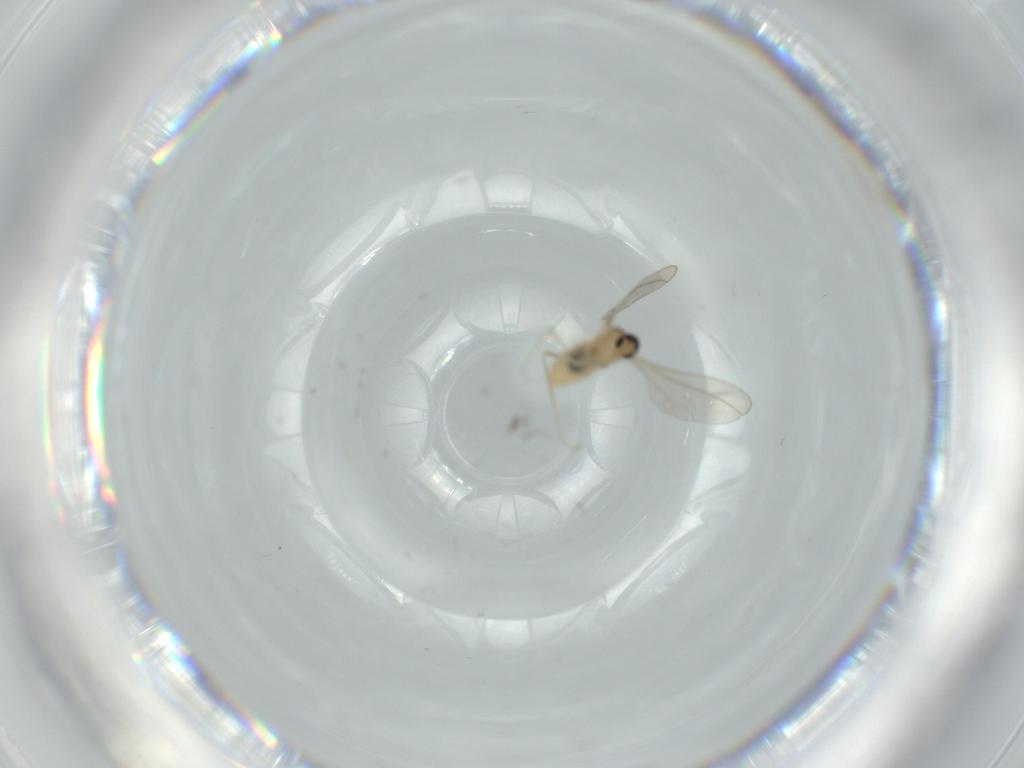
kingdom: Animalia
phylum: Arthropoda
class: Insecta
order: Diptera
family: Cecidomyiidae
